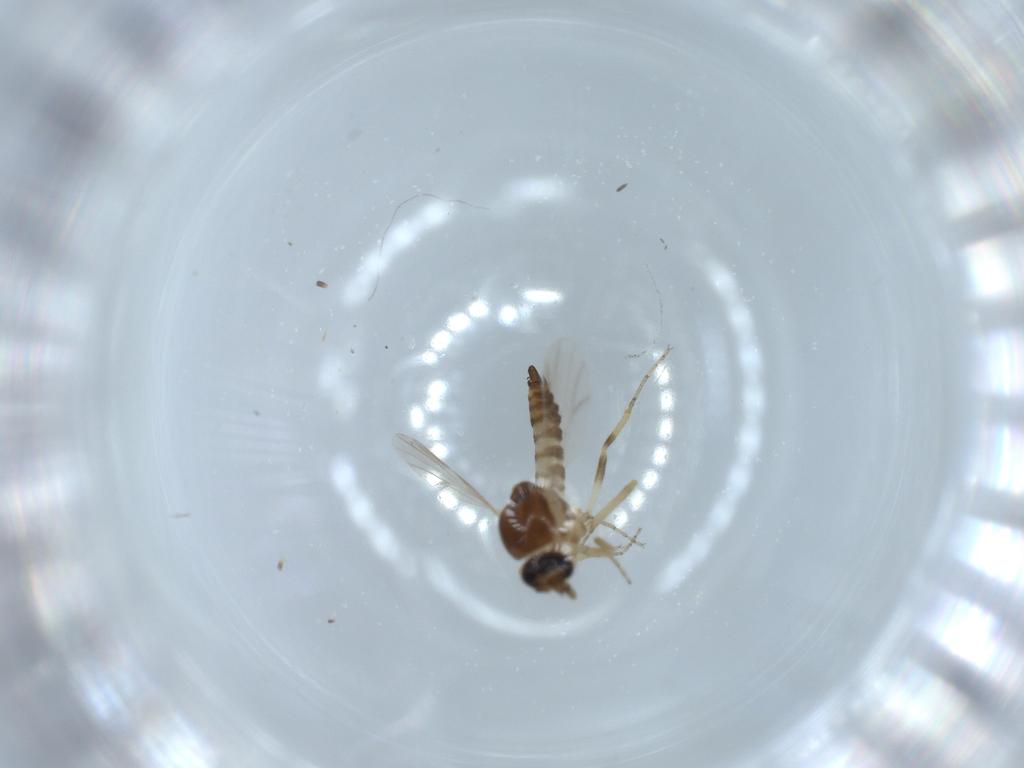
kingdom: Animalia
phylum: Arthropoda
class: Insecta
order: Diptera
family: Ceratopogonidae
